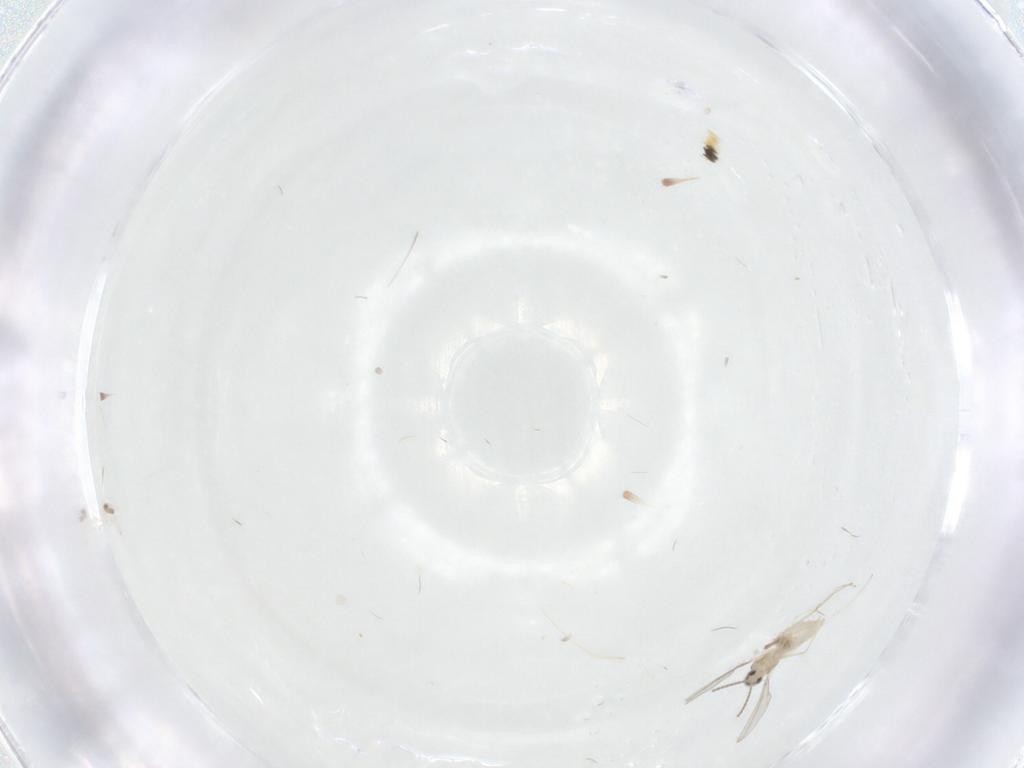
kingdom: Animalia
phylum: Arthropoda
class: Insecta
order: Diptera
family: Cecidomyiidae
